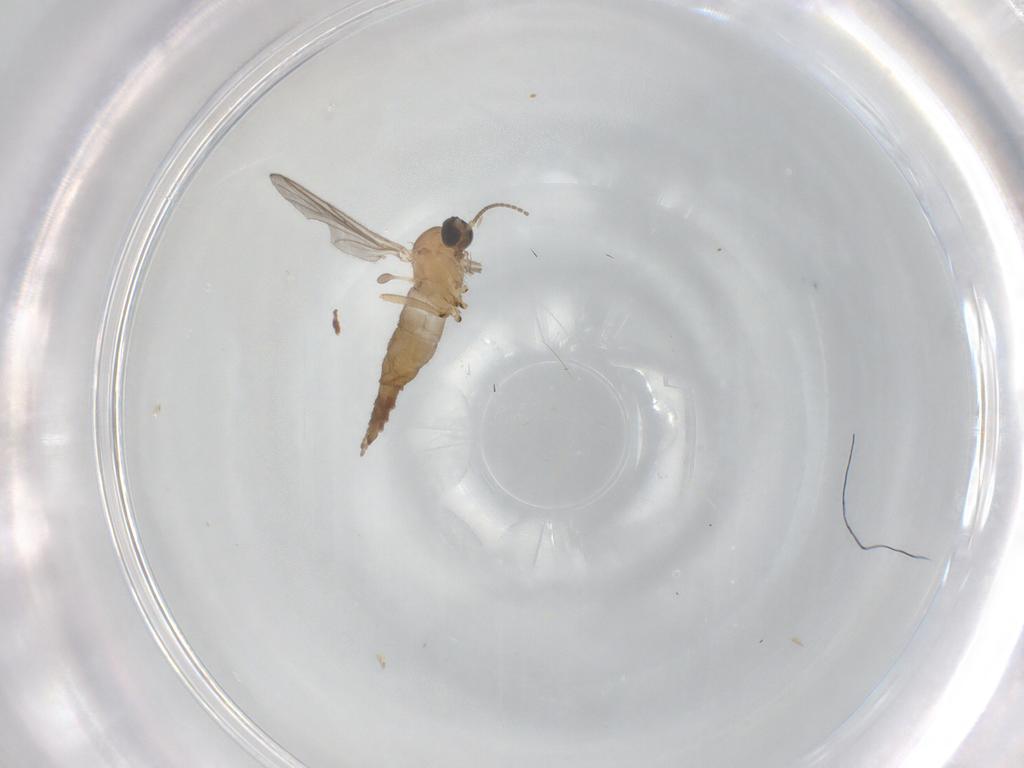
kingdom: Animalia
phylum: Arthropoda
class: Insecta
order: Diptera
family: Sciaridae
